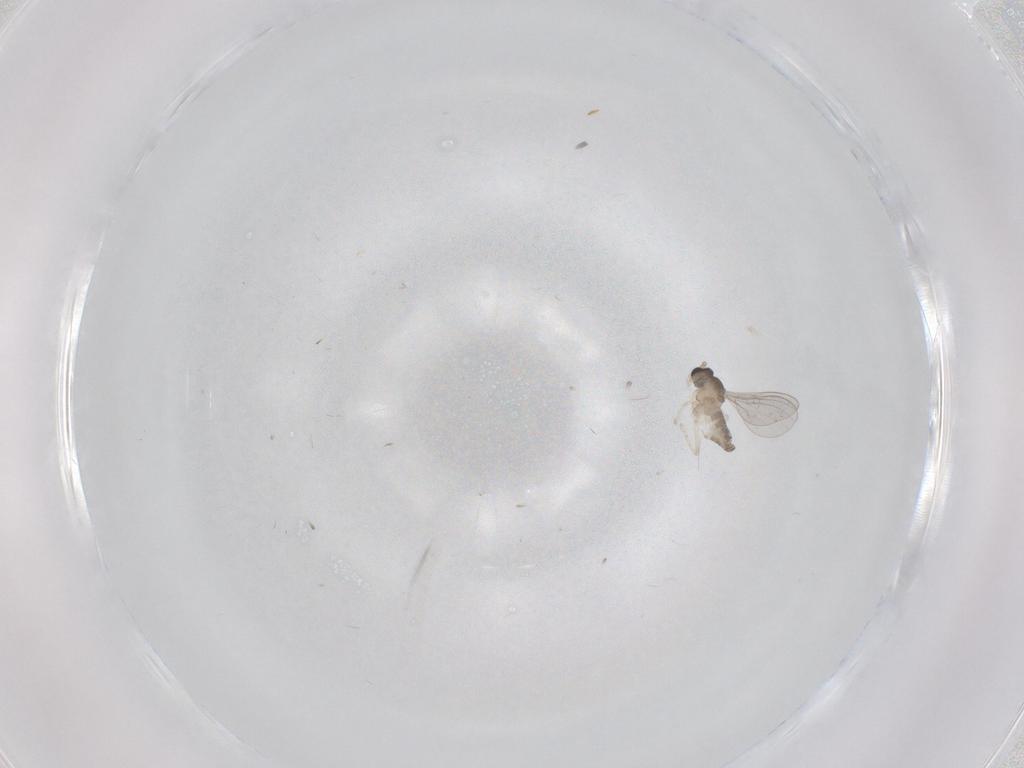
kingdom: Animalia
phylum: Arthropoda
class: Insecta
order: Diptera
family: Cecidomyiidae
